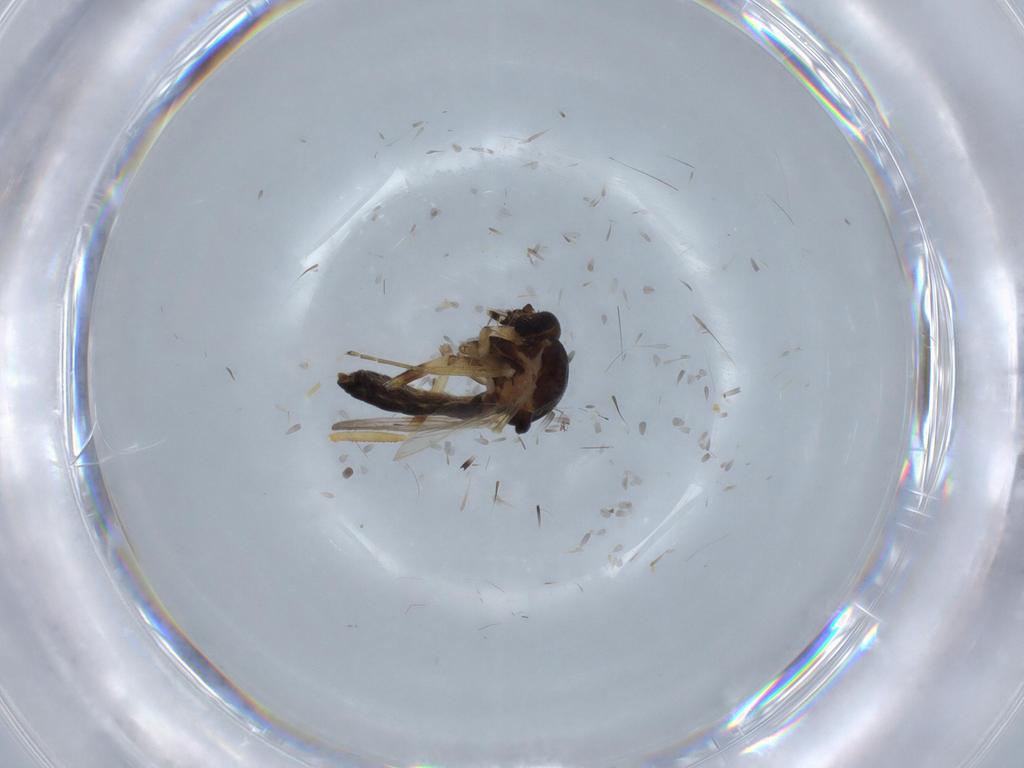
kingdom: Animalia
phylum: Arthropoda
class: Insecta
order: Diptera
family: Ceratopogonidae
